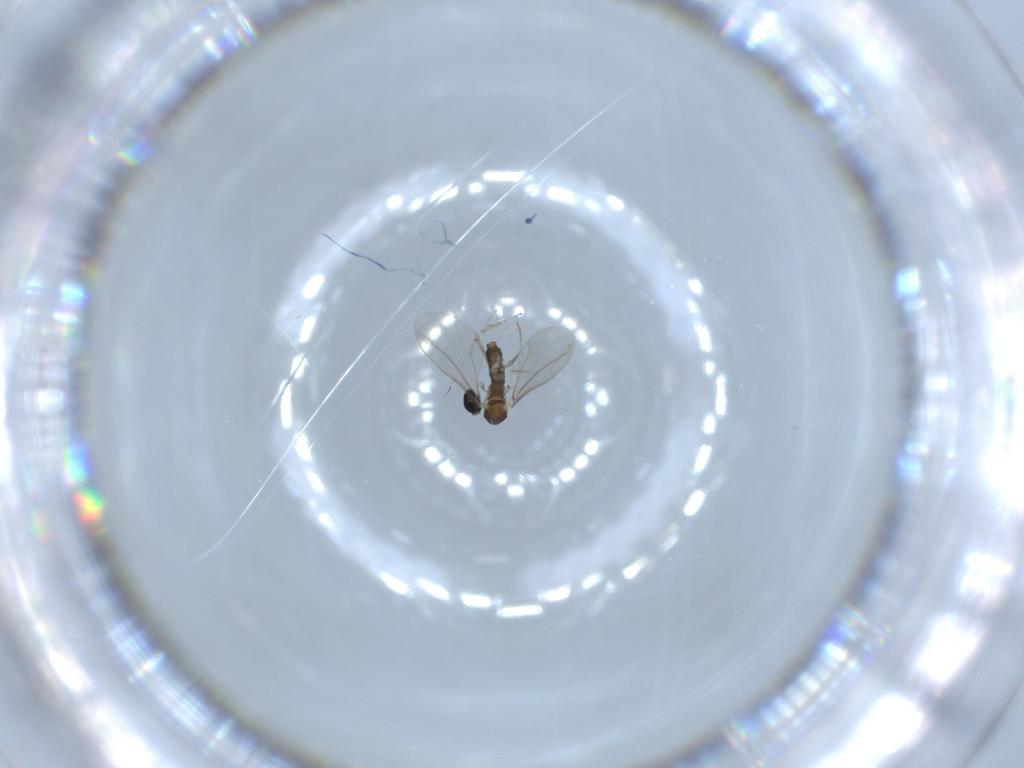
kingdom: Animalia
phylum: Arthropoda
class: Insecta
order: Diptera
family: Cecidomyiidae
